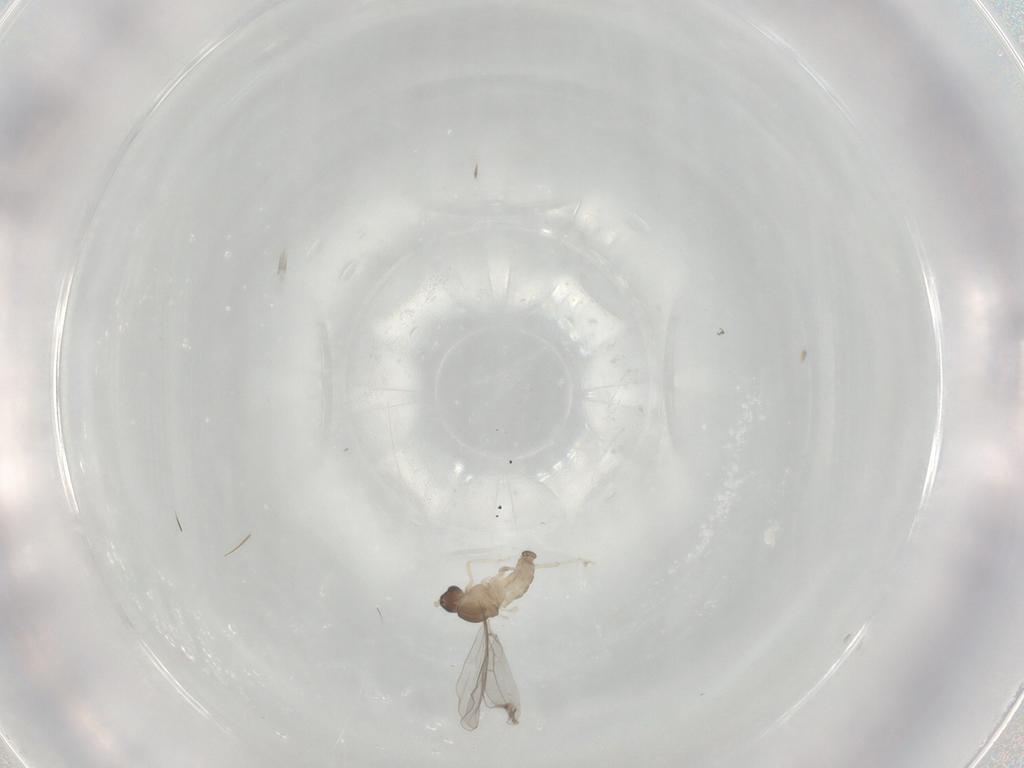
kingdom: Animalia
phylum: Arthropoda
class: Insecta
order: Diptera
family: Cecidomyiidae
